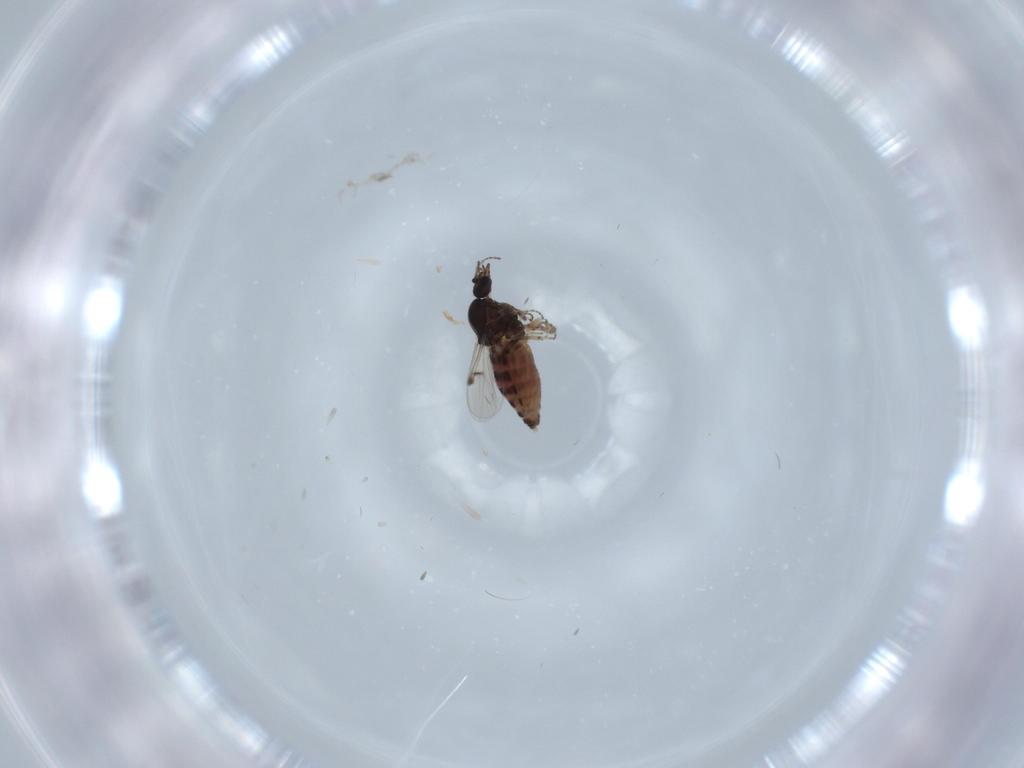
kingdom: Animalia
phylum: Arthropoda
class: Insecta
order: Diptera
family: Ceratopogonidae
